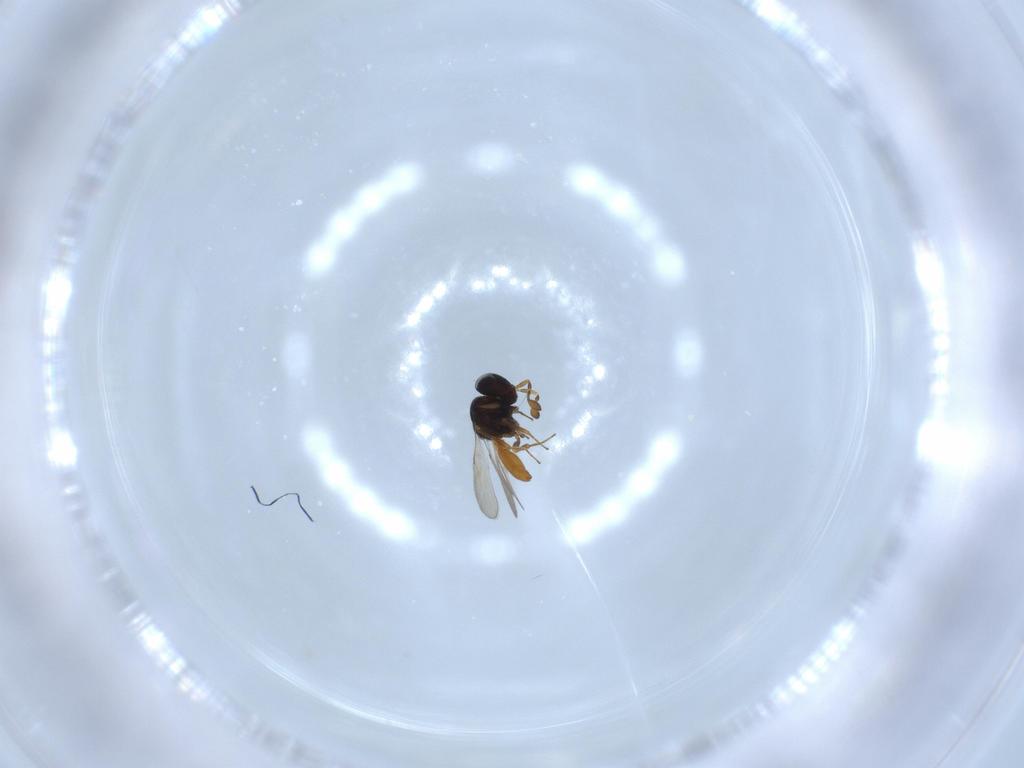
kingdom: Animalia
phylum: Arthropoda
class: Insecta
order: Hymenoptera
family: Scelionidae
